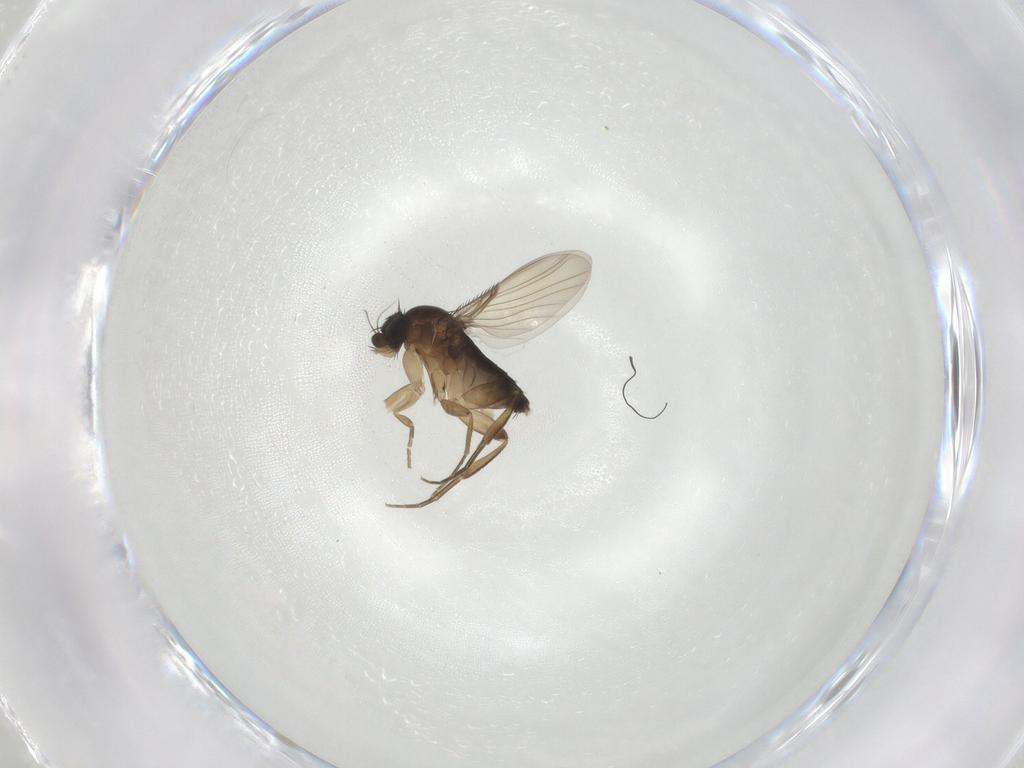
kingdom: Animalia
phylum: Arthropoda
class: Insecta
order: Diptera
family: Phoridae
